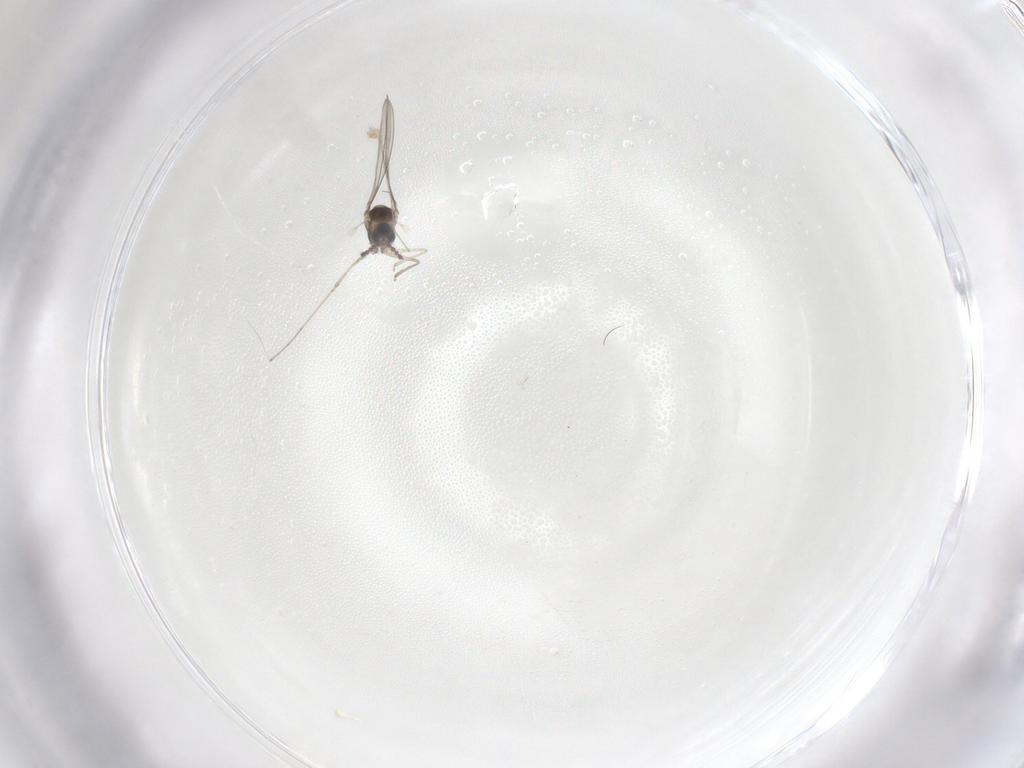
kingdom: Animalia
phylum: Arthropoda
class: Insecta
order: Diptera
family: Cecidomyiidae
